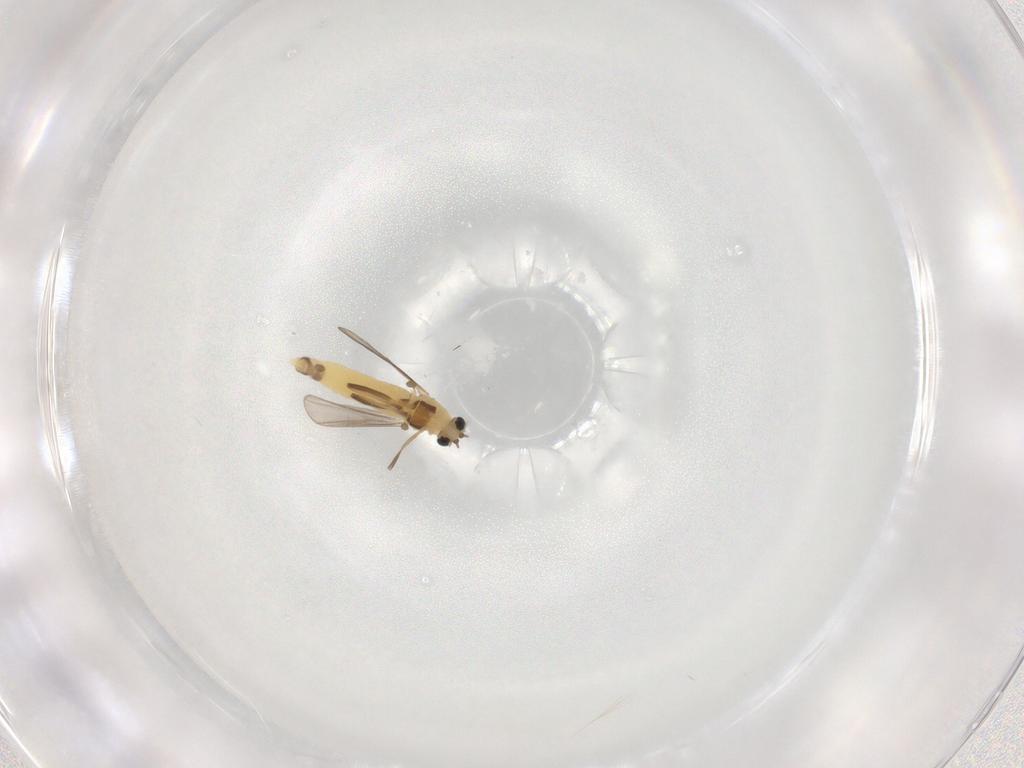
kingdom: Animalia
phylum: Arthropoda
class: Insecta
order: Diptera
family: Chironomidae
